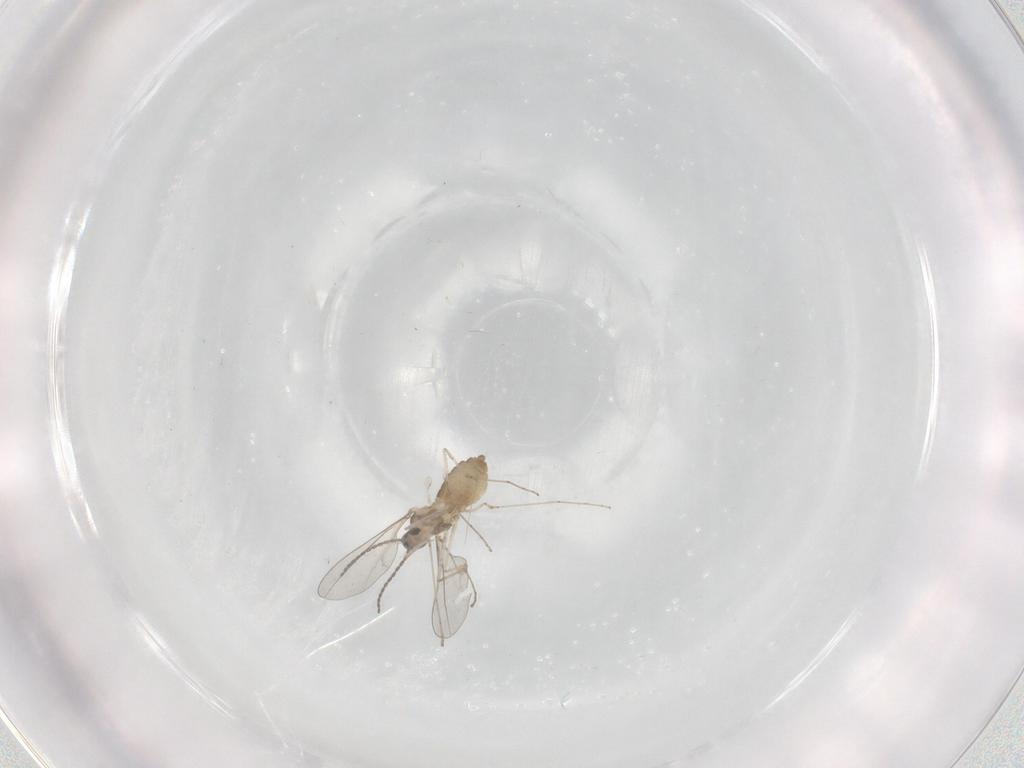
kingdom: Animalia
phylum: Arthropoda
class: Insecta
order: Diptera
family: Cecidomyiidae
